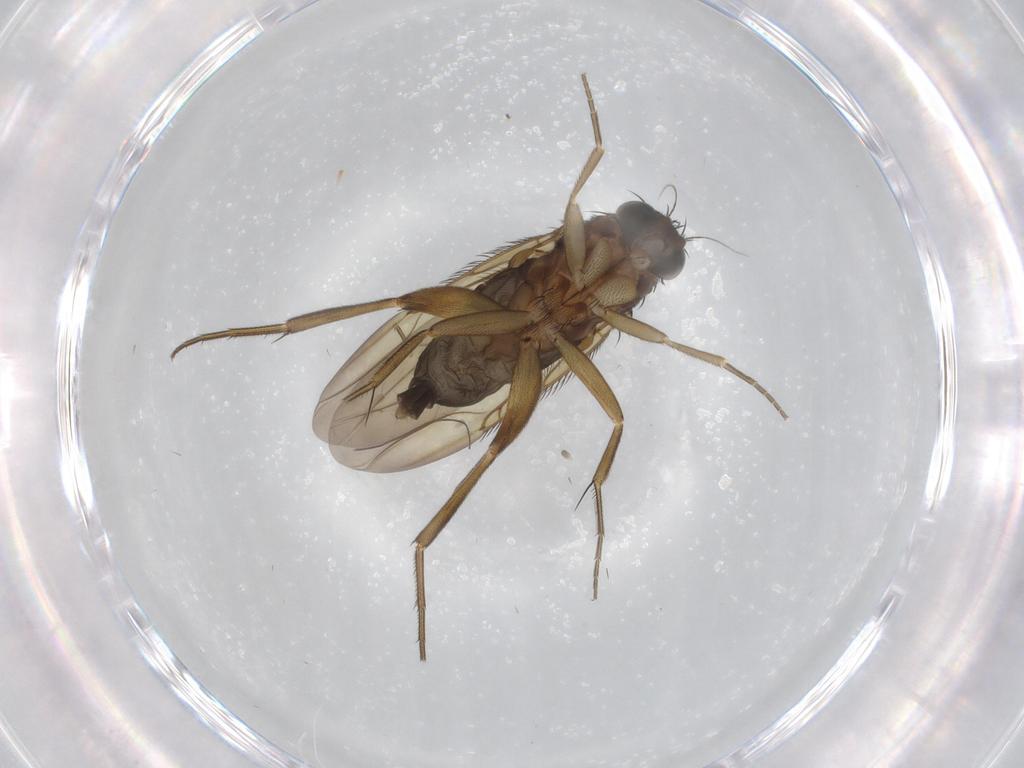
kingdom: Animalia
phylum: Arthropoda
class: Insecta
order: Diptera
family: Phoridae
